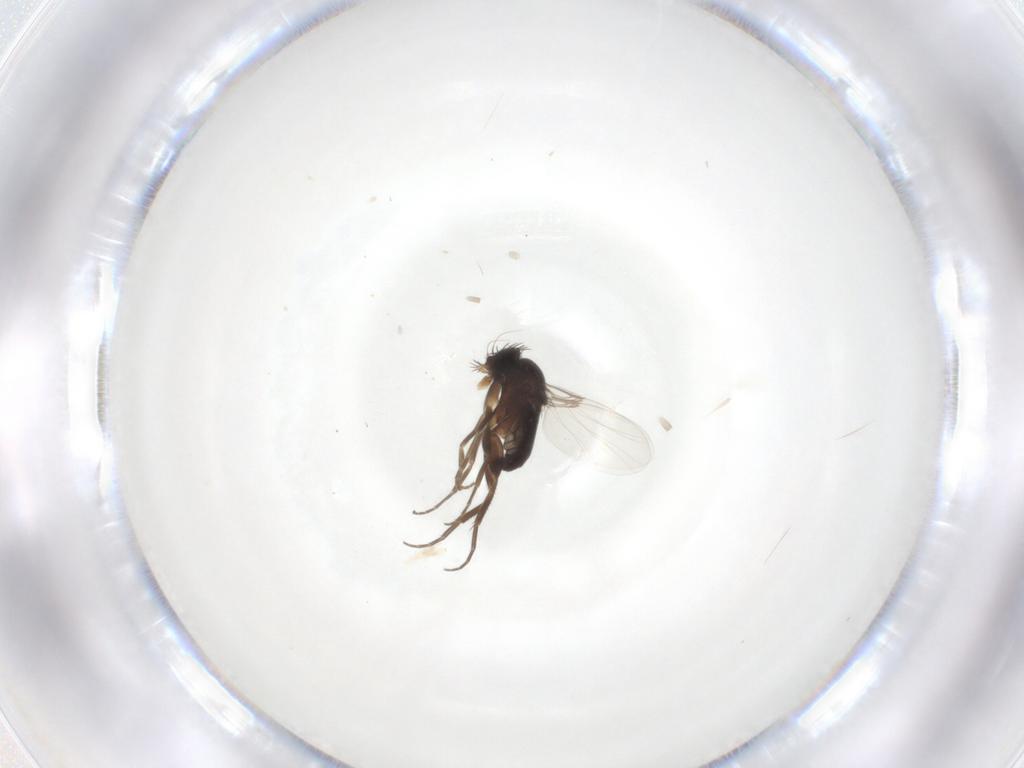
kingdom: Animalia
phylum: Arthropoda
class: Insecta
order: Diptera
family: Phoridae
